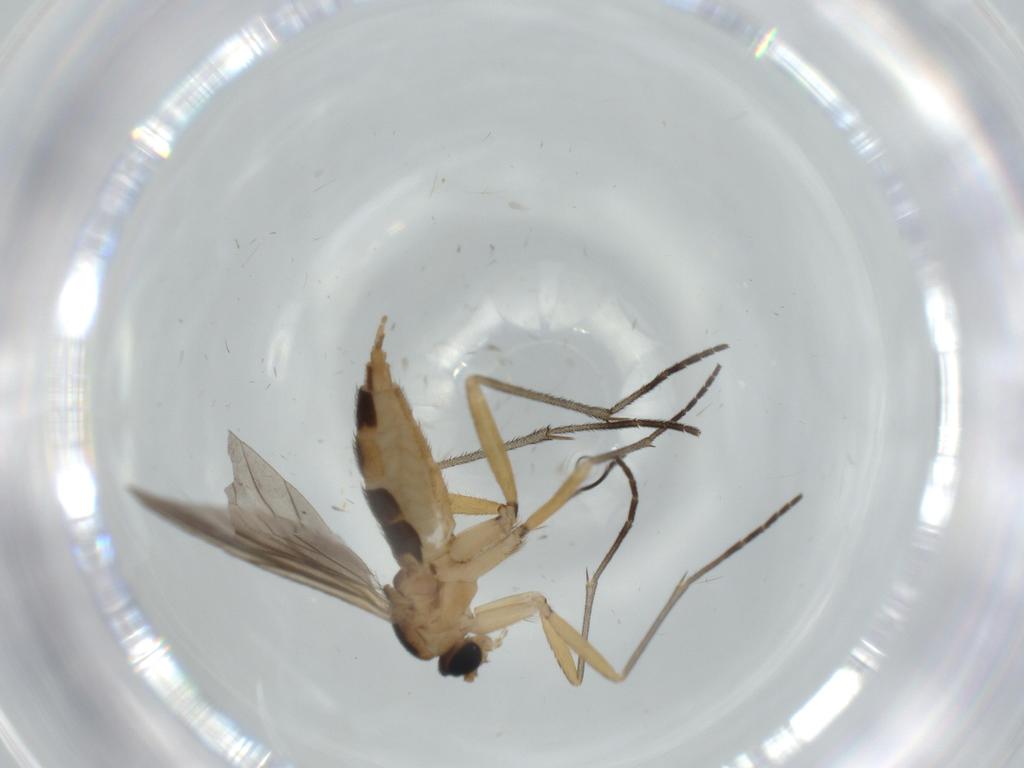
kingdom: Animalia
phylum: Arthropoda
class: Insecta
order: Diptera
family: Sciaridae
